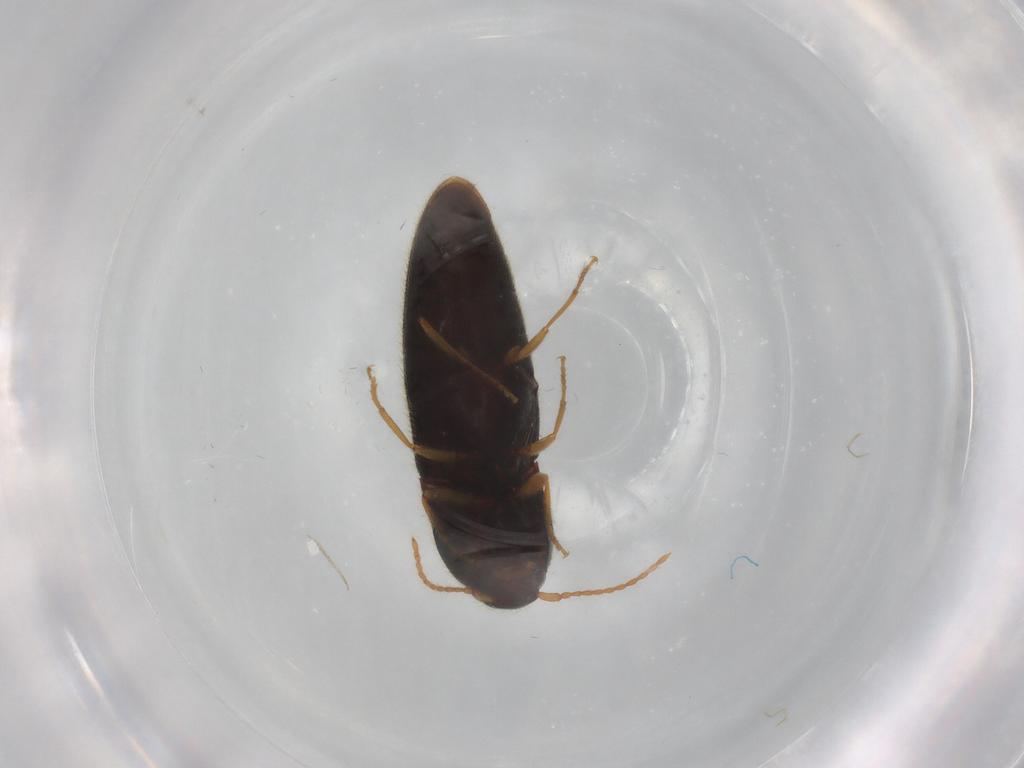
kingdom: Animalia
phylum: Arthropoda
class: Insecta
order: Coleoptera
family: Elateridae
